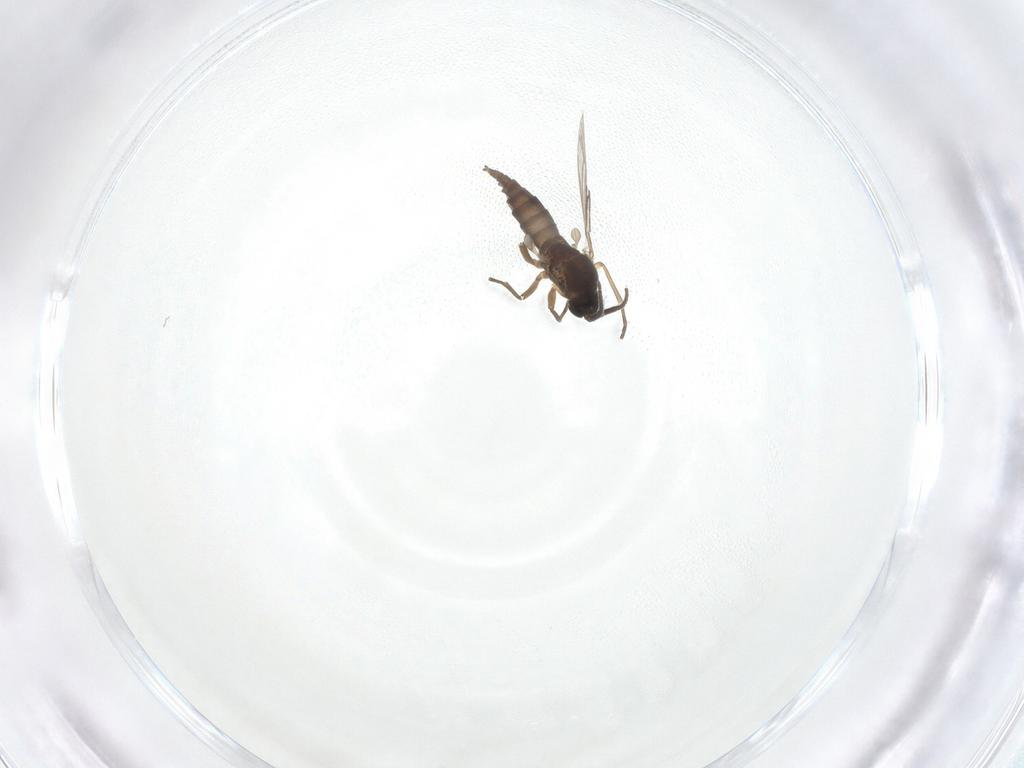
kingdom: Animalia
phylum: Arthropoda
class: Insecta
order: Diptera
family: Sciaridae
